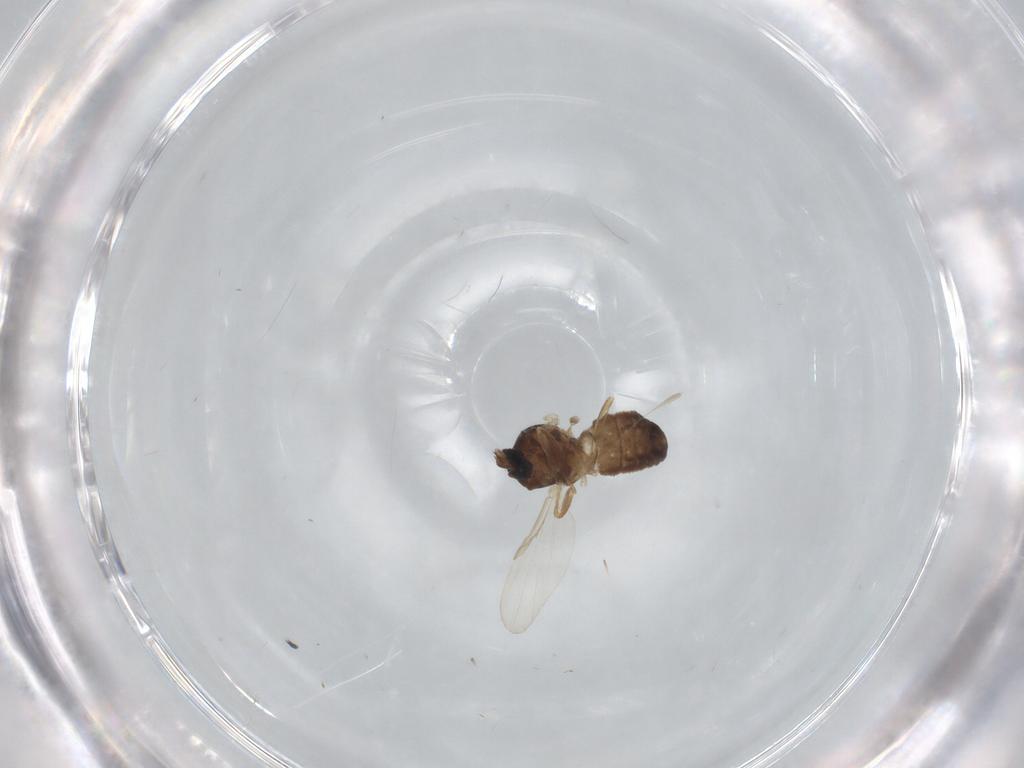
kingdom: Animalia
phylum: Arthropoda
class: Insecta
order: Diptera
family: Ceratopogonidae
